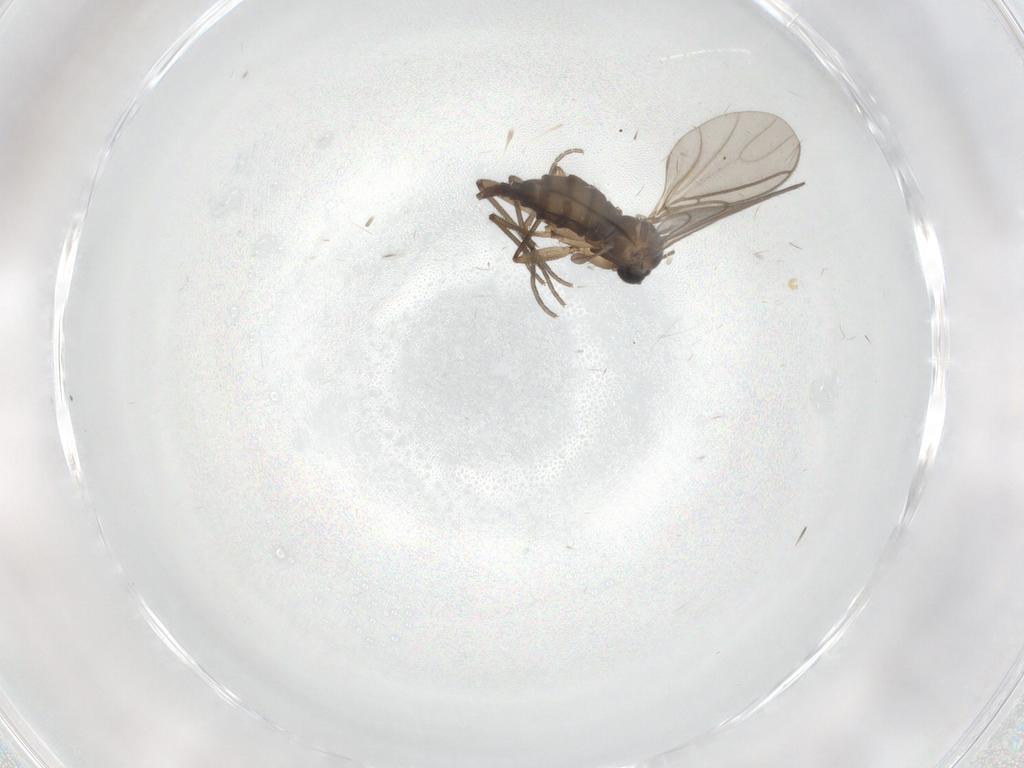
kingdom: Animalia
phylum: Arthropoda
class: Insecta
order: Diptera
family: Sciaridae
